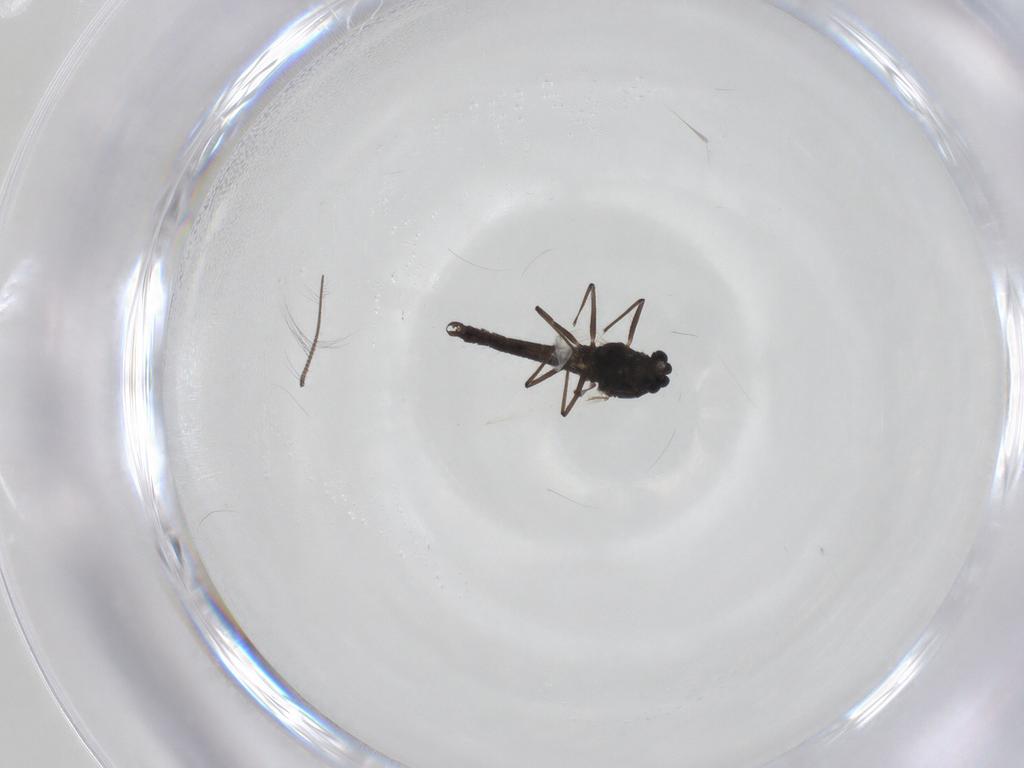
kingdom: Animalia
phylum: Arthropoda
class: Insecta
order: Diptera
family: Chironomidae
